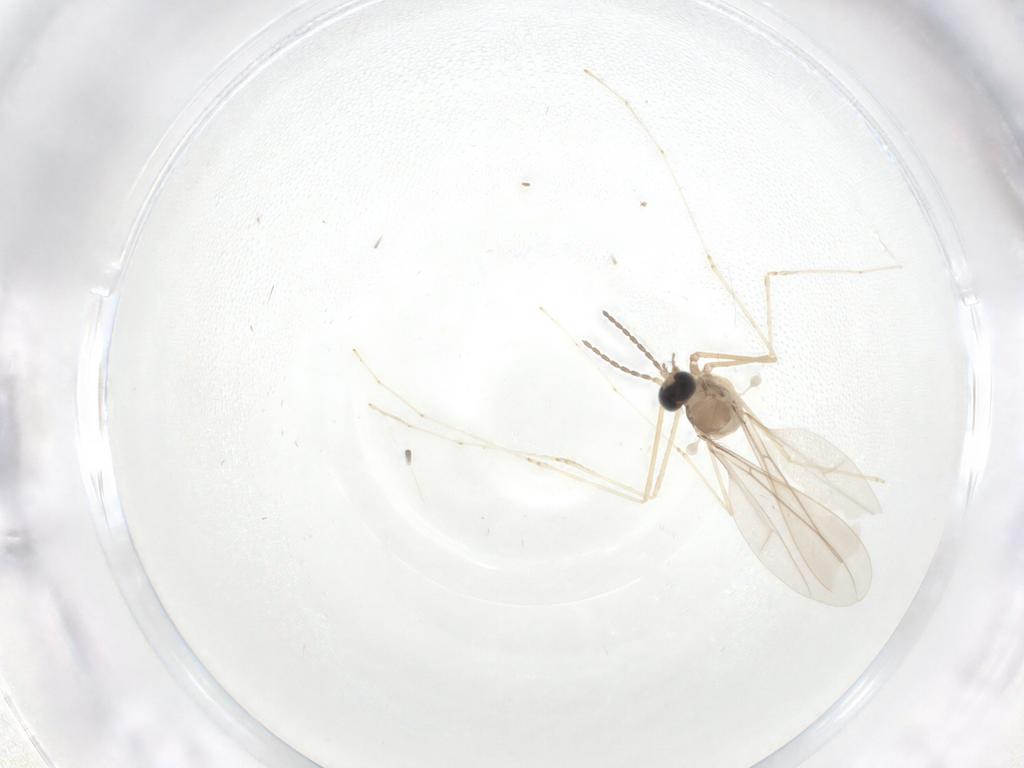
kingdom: Animalia
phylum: Arthropoda
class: Insecta
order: Diptera
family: Cecidomyiidae
